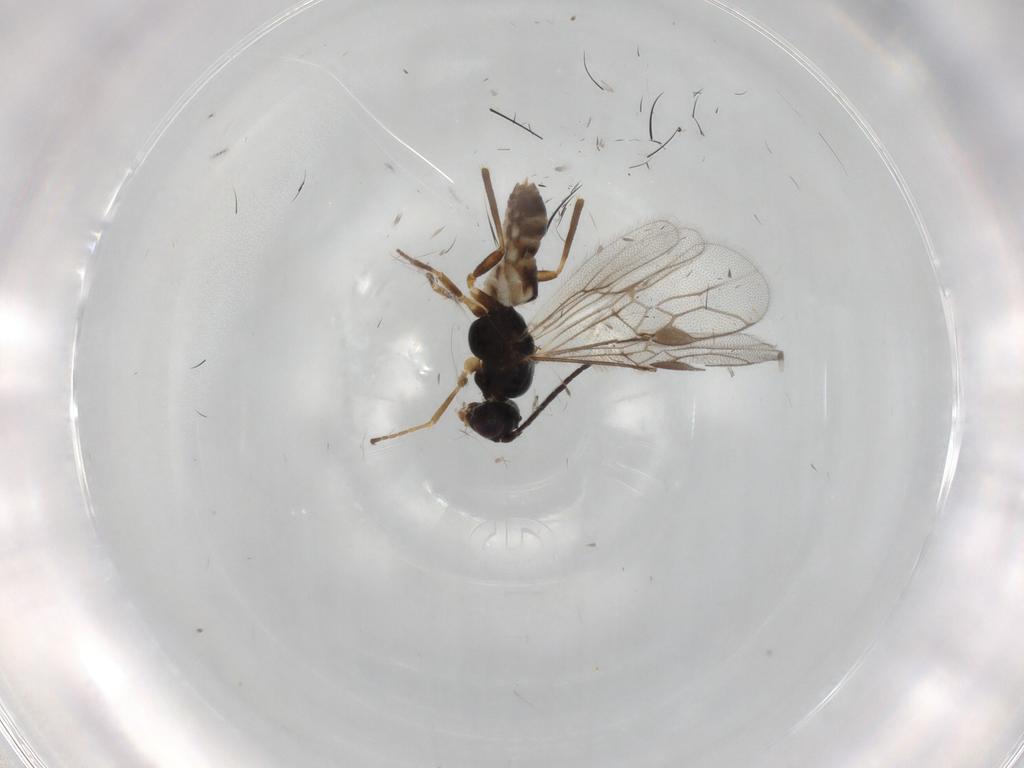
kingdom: Animalia
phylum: Arthropoda
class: Insecta
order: Hymenoptera
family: Braconidae
